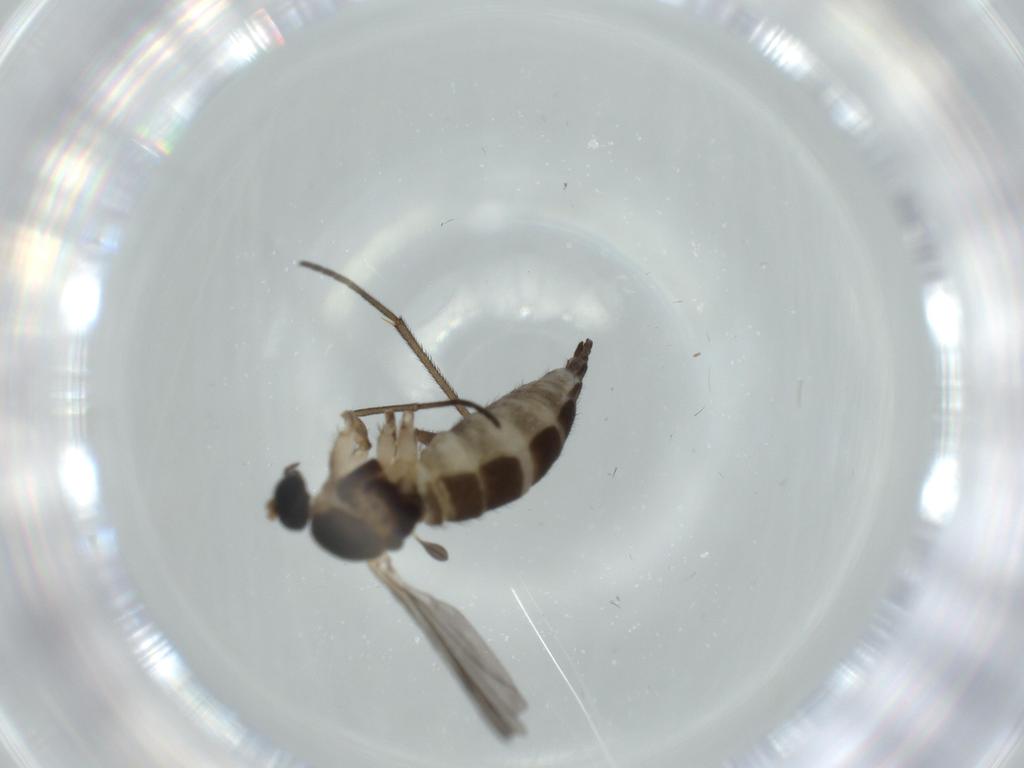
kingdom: Animalia
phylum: Arthropoda
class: Insecta
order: Diptera
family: Sciaridae
